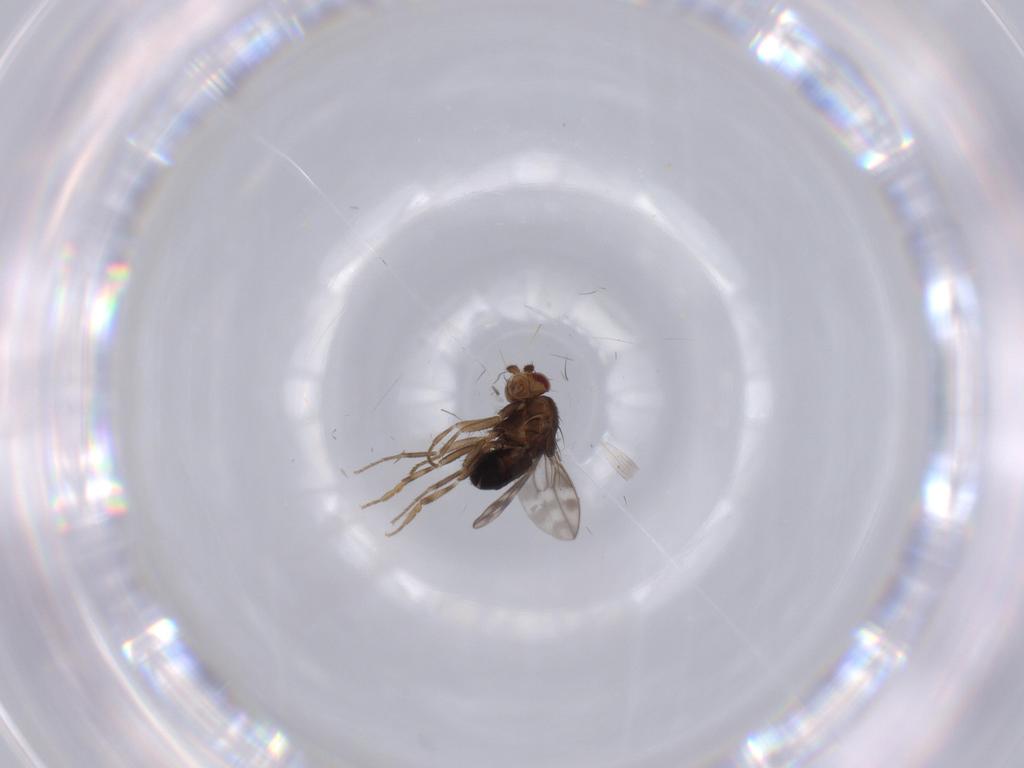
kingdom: Animalia
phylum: Arthropoda
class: Insecta
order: Diptera
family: Sphaeroceridae
